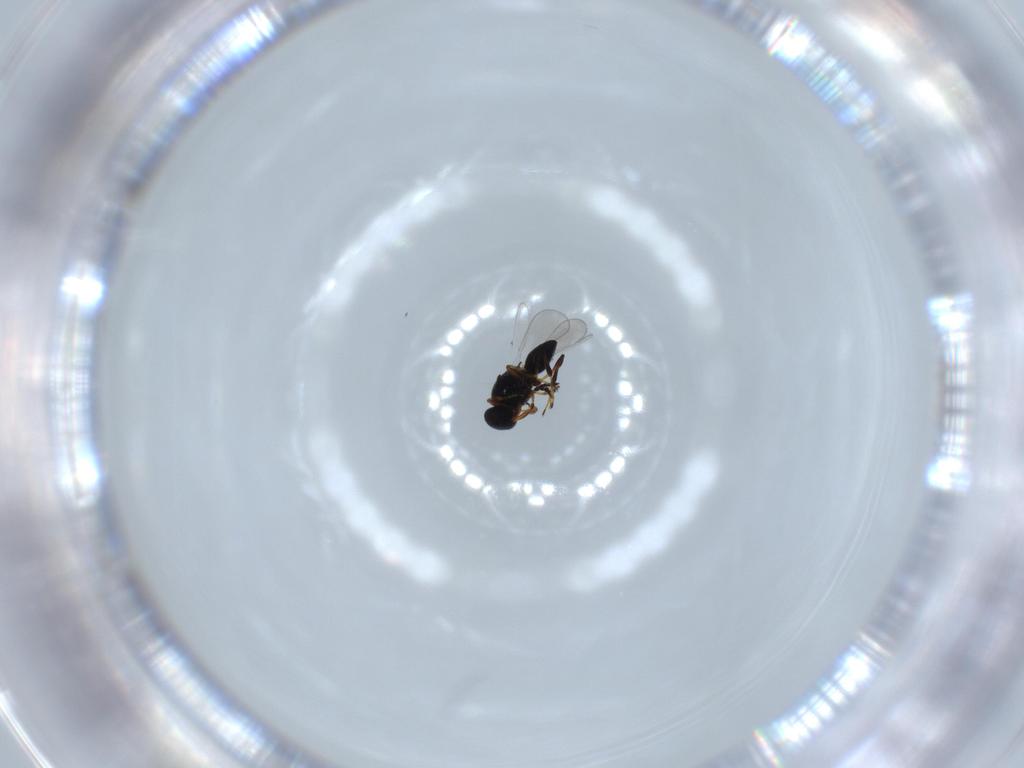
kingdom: Animalia
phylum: Arthropoda
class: Insecta
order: Hymenoptera
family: Platygastridae
